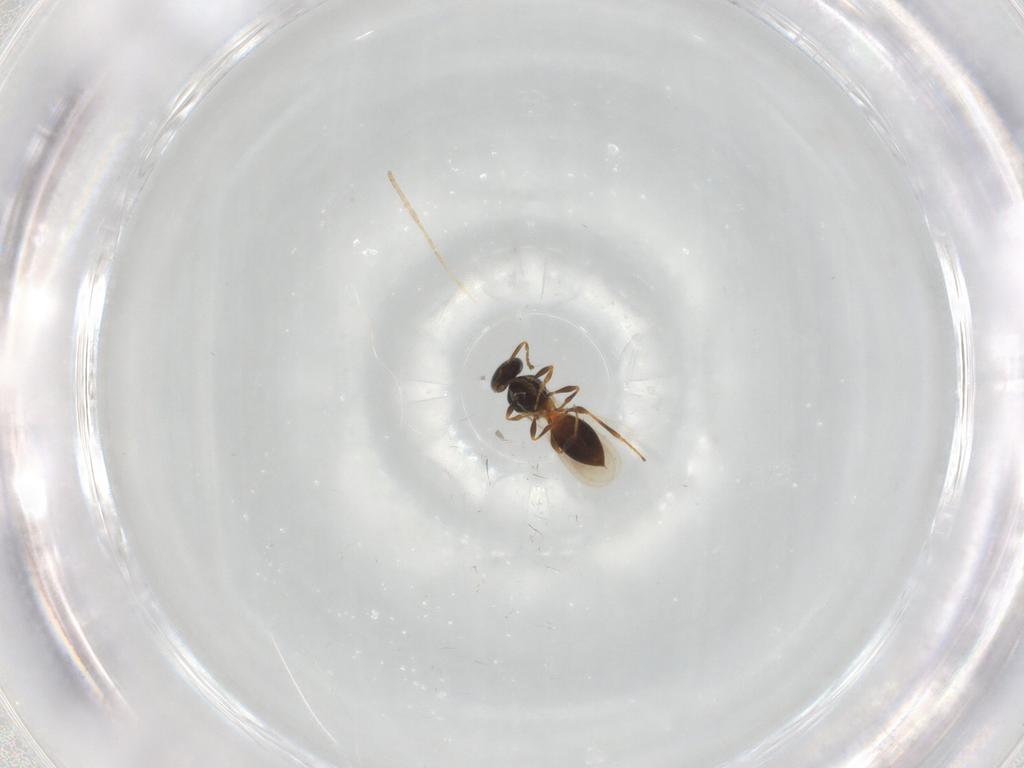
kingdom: Animalia
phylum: Arthropoda
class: Insecta
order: Hymenoptera
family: Platygastridae
